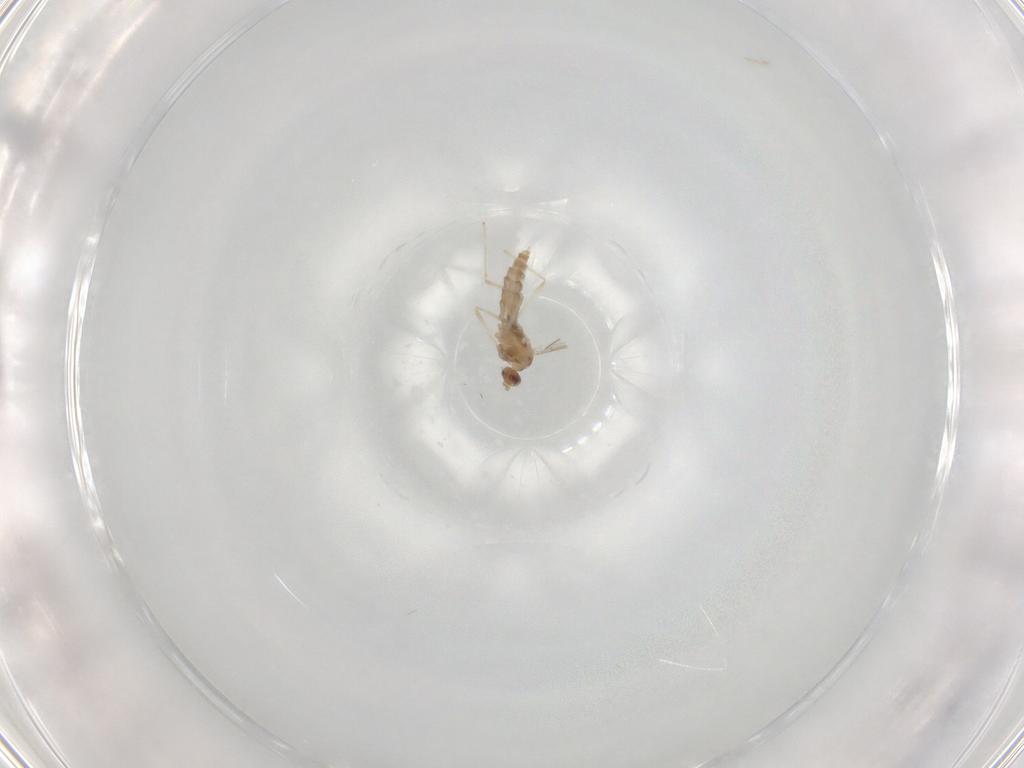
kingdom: Animalia
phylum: Arthropoda
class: Insecta
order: Diptera
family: Cecidomyiidae
